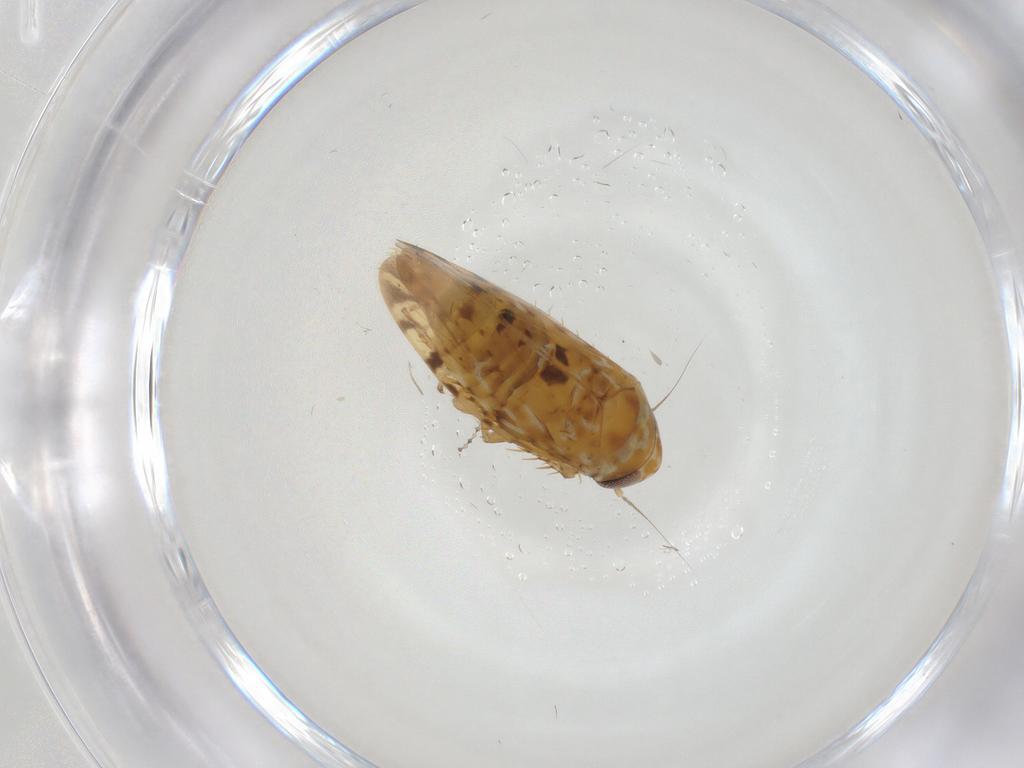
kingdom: Animalia
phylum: Arthropoda
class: Insecta
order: Hemiptera
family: Cicadellidae
